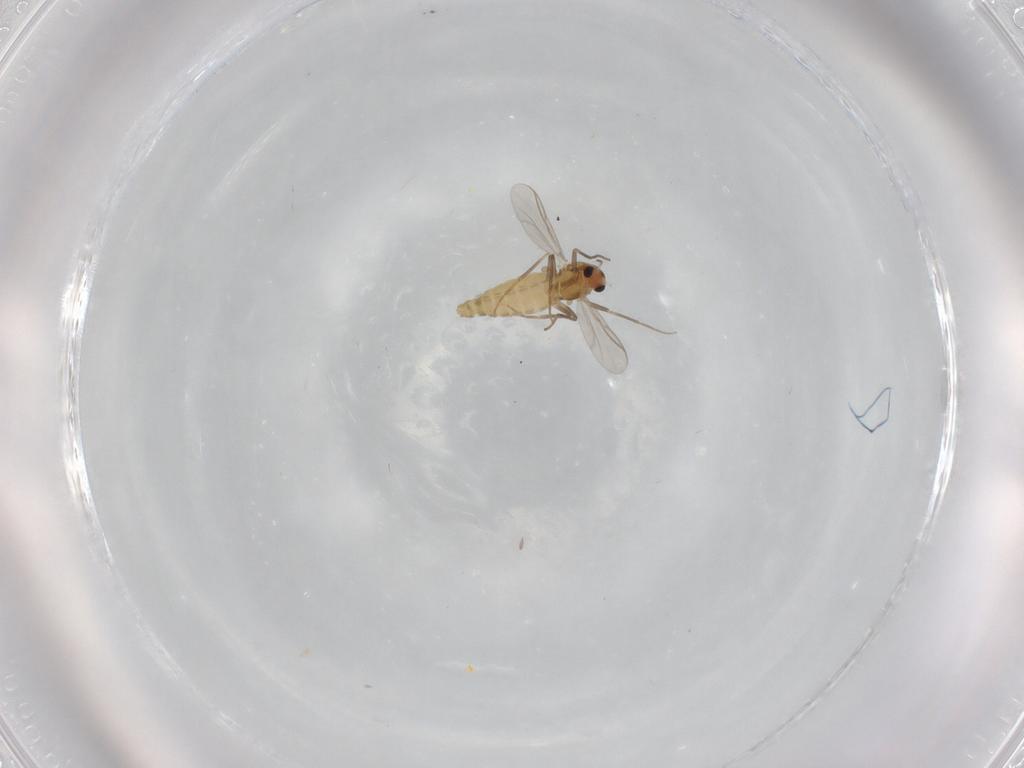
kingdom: Animalia
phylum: Arthropoda
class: Insecta
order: Diptera
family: Chironomidae
